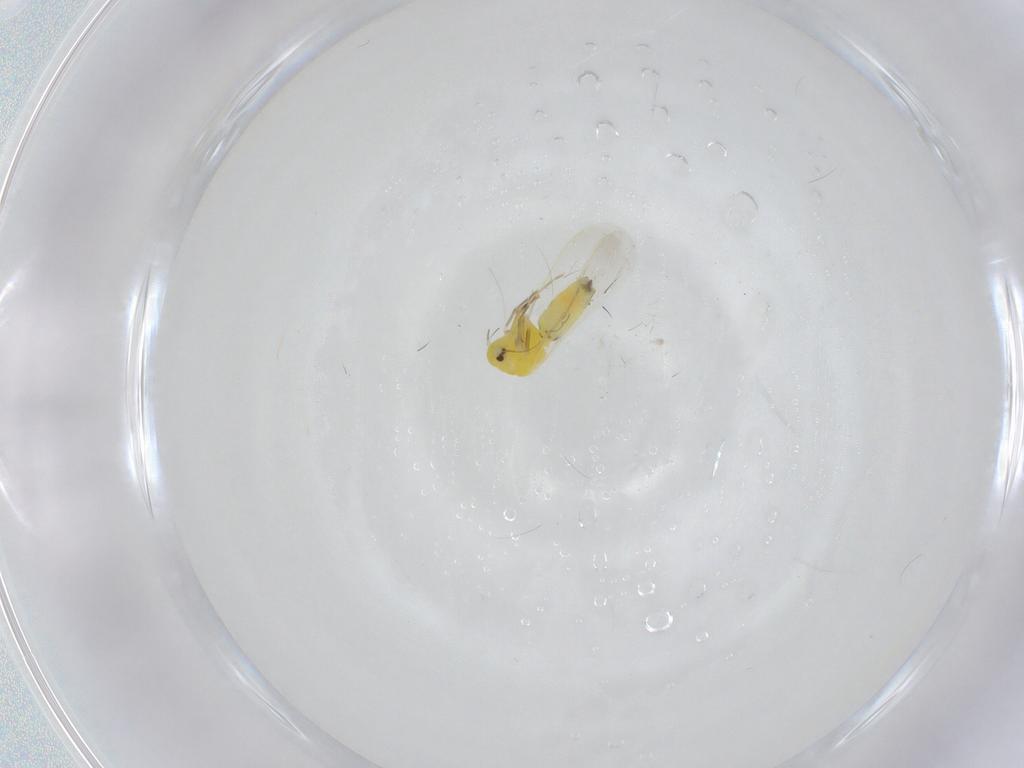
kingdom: Animalia
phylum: Arthropoda
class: Insecta
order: Hemiptera
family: Aleyrodidae
